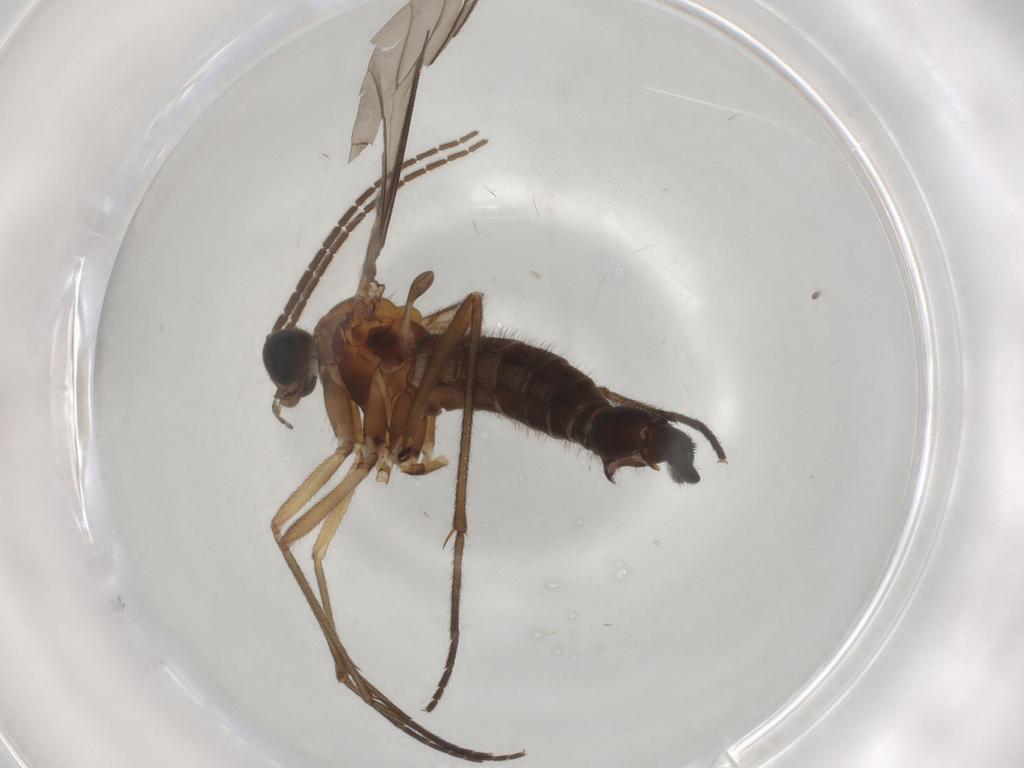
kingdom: Animalia
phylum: Arthropoda
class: Insecta
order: Diptera
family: Sciaridae
